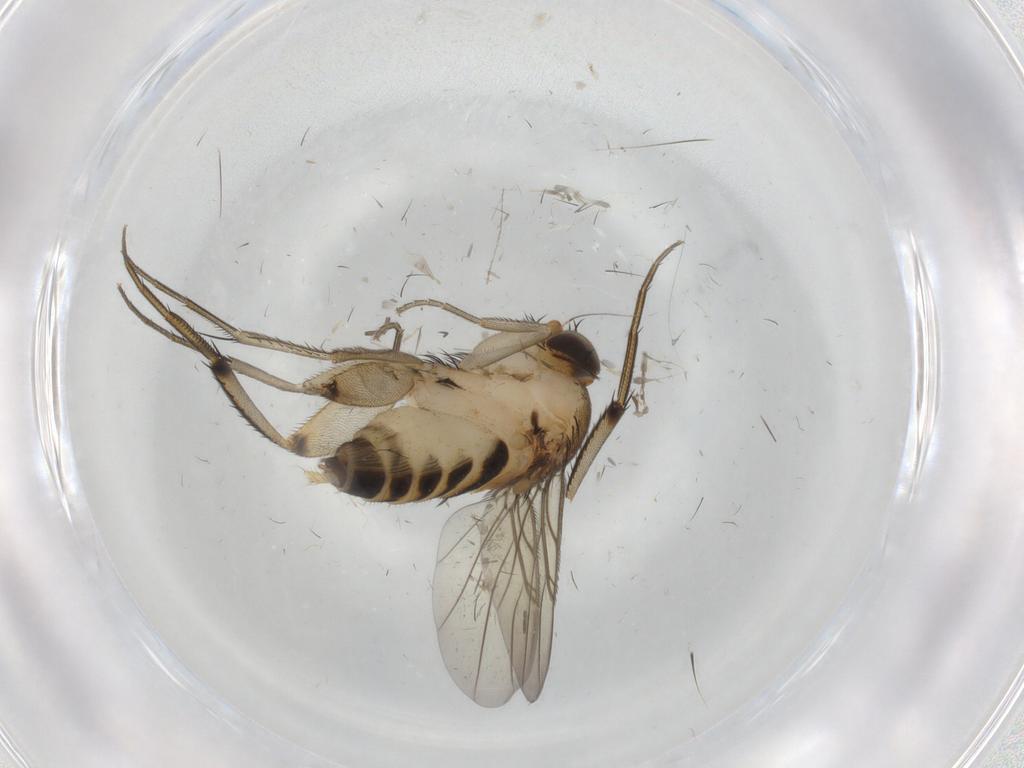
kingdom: Animalia
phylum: Arthropoda
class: Insecta
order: Diptera
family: Phoridae
